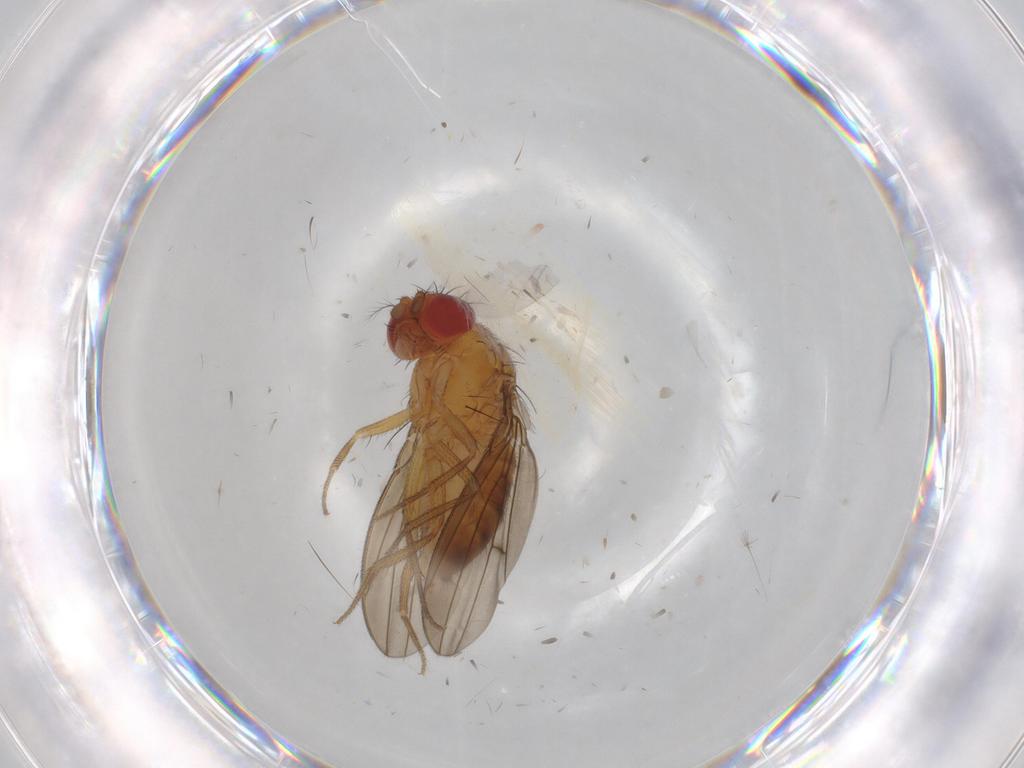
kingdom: Animalia
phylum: Arthropoda
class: Insecta
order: Diptera
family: Drosophilidae
